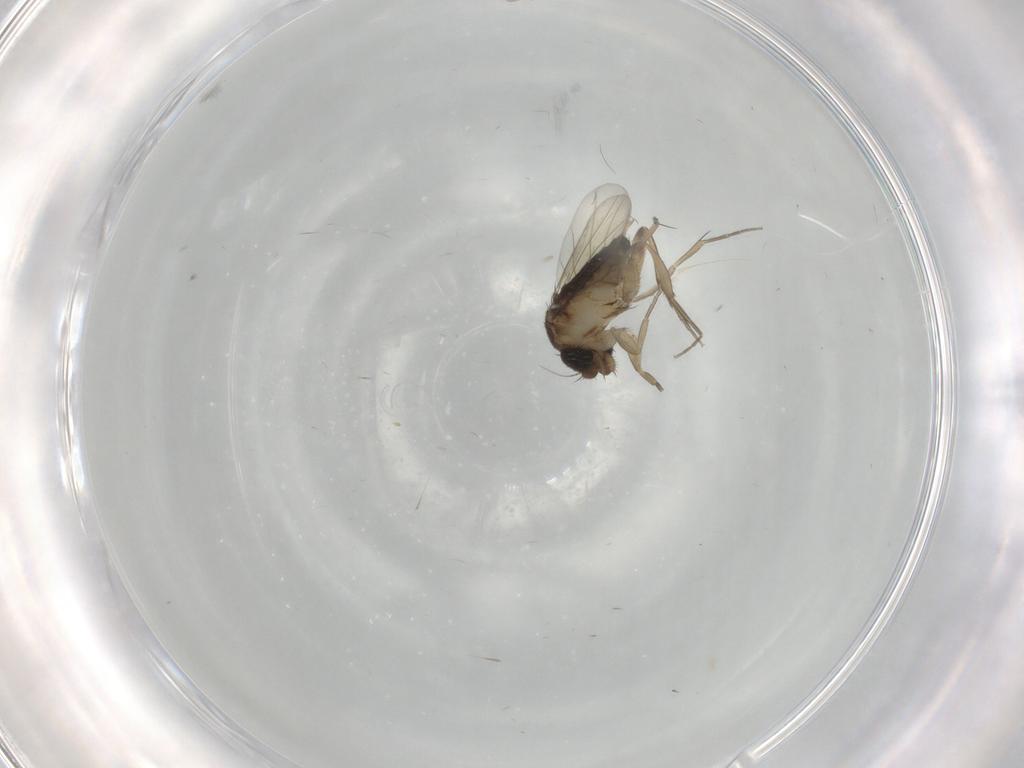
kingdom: Animalia
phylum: Arthropoda
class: Insecta
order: Diptera
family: Phoridae
